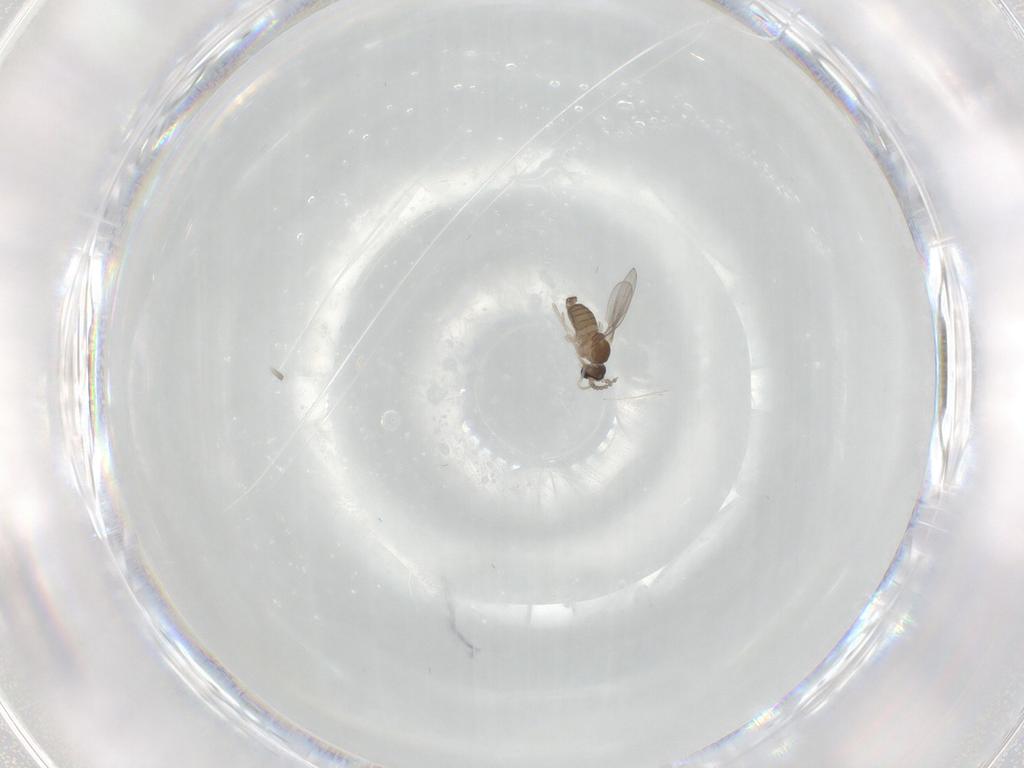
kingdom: Animalia
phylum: Arthropoda
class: Insecta
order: Diptera
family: Cecidomyiidae
